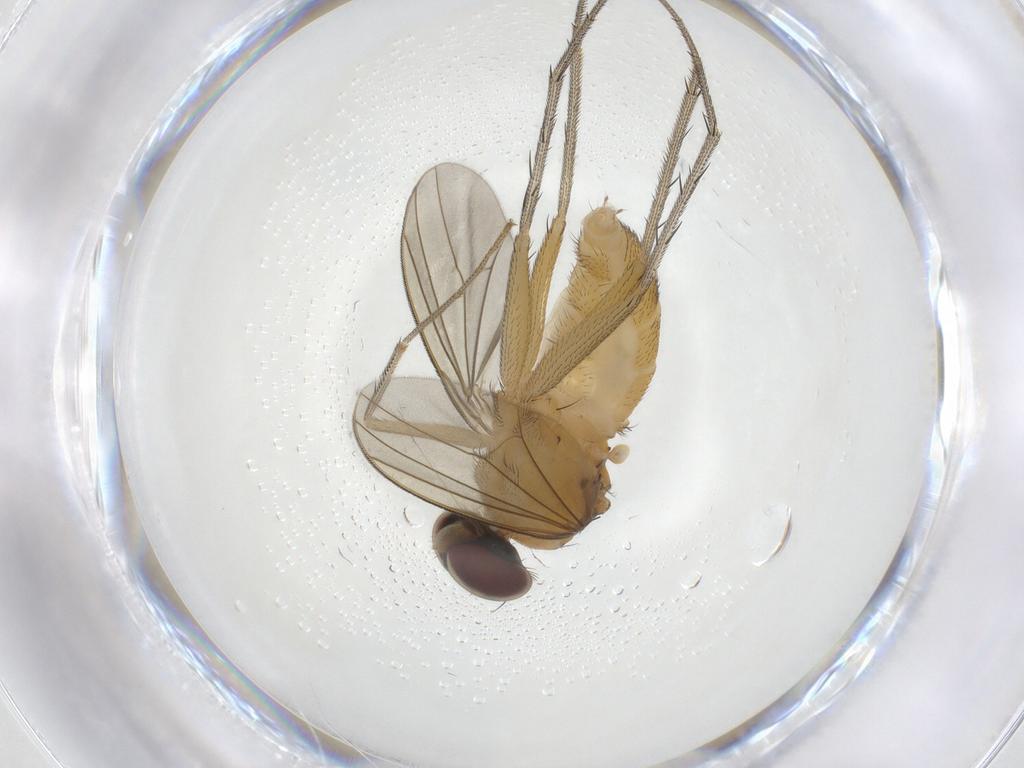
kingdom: Animalia
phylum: Arthropoda
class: Insecta
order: Diptera
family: Dolichopodidae
